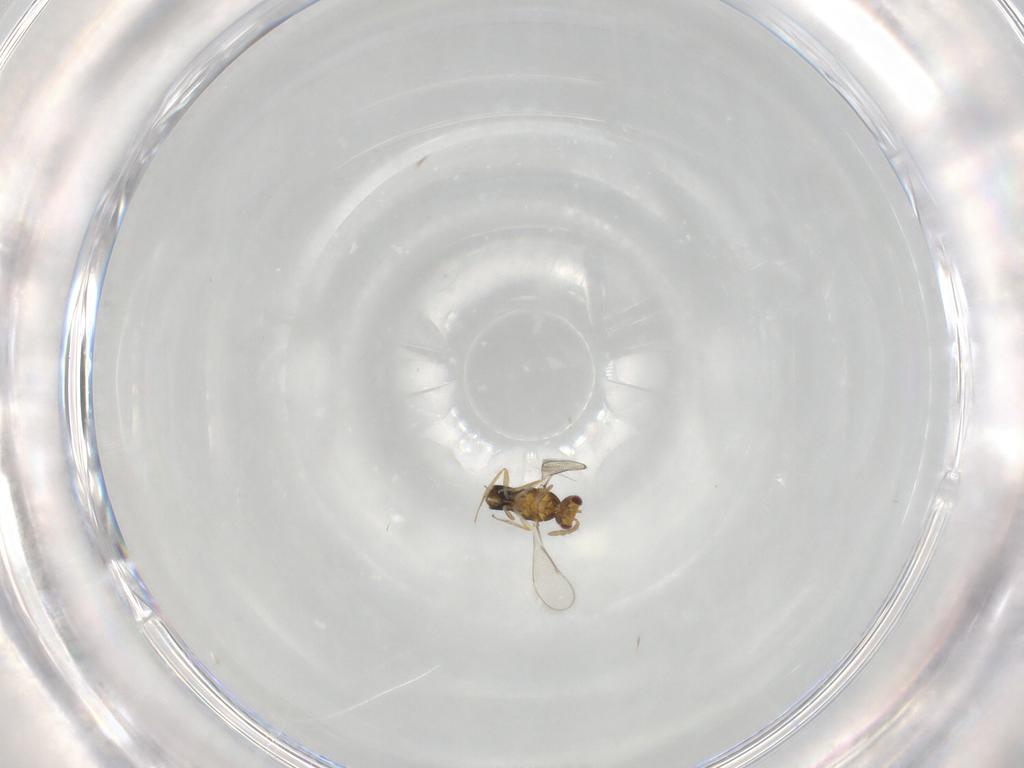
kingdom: Animalia
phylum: Arthropoda
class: Insecta
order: Hymenoptera
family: Aphelinidae
